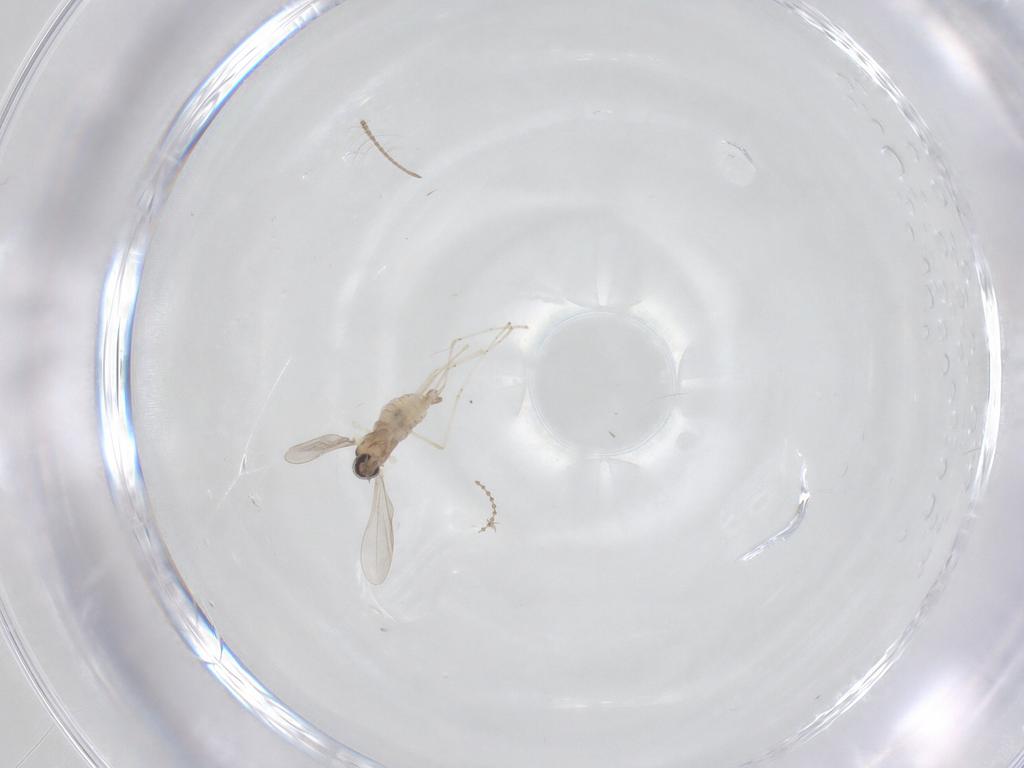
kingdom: Animalia
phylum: Arthropoda
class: Insecta
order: Diptera
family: Cecidomyiidae
